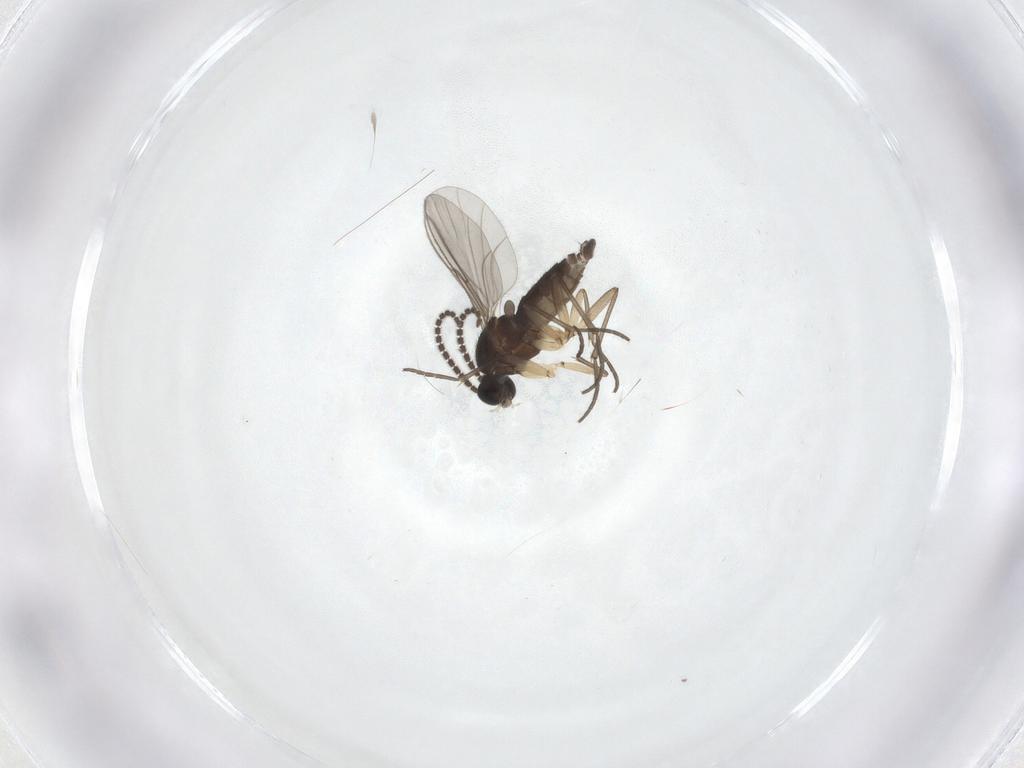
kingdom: Animalia
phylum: Arthropoda
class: Insecta
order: Diptera
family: Sciaridae
